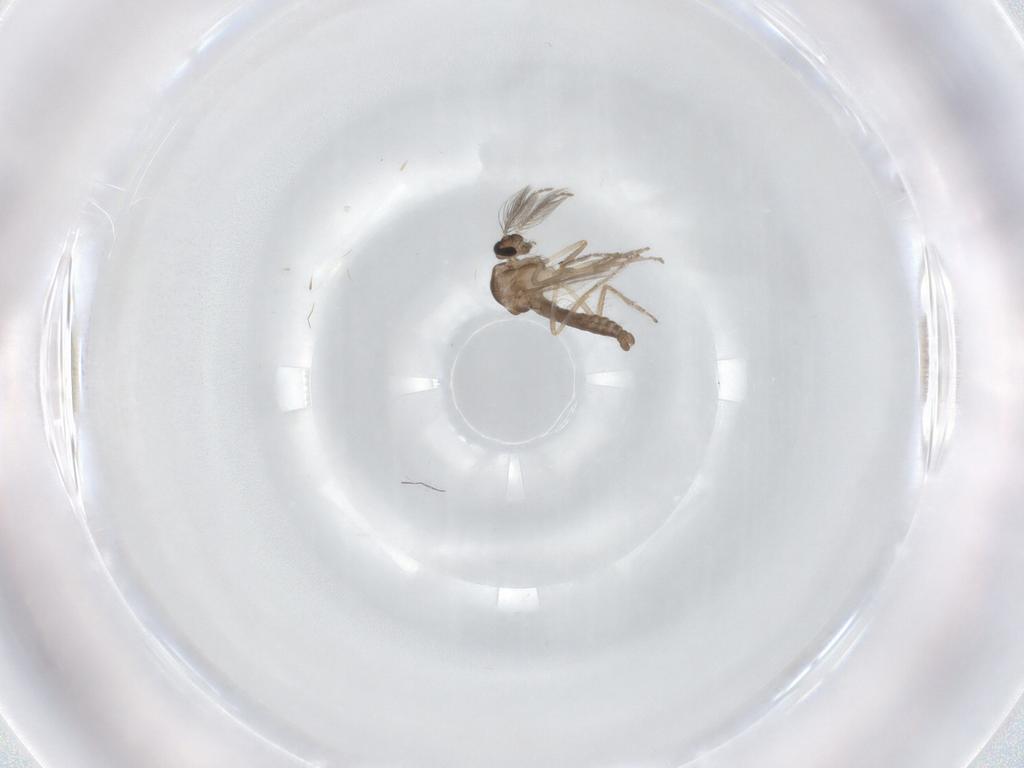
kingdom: Animalia
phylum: Arthropoda
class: Insecta
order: Diptera
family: Ceratopogonidae
